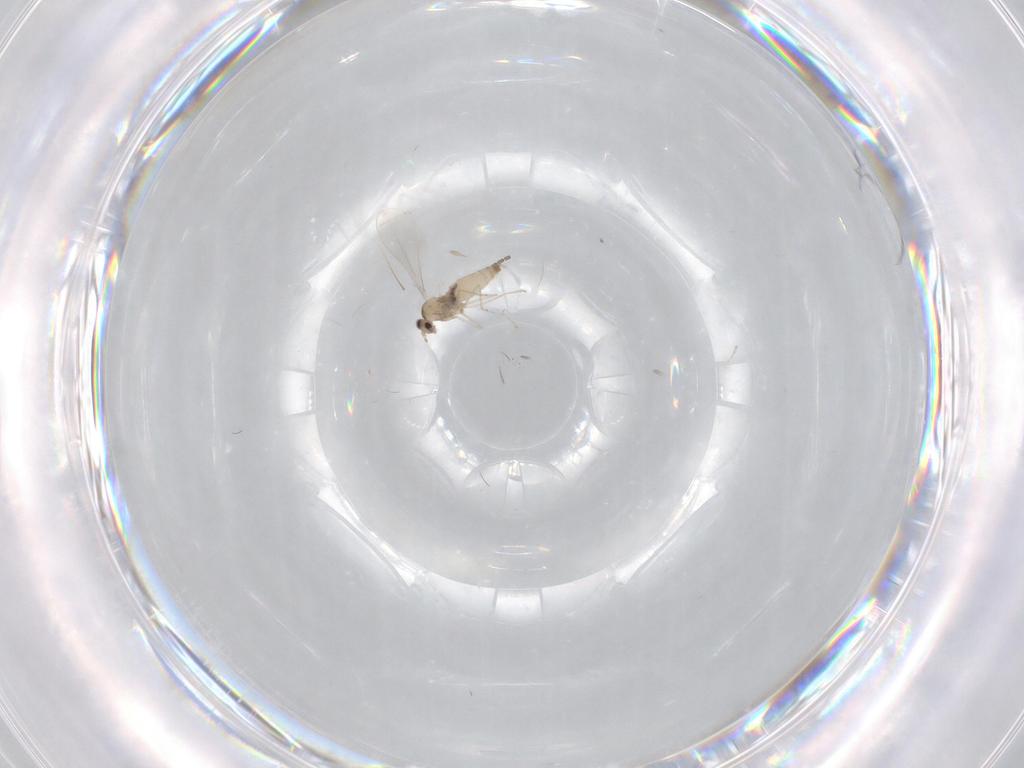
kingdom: Animalia
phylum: Arthropoda
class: Insecta
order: Diptera
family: Cecidomyiidae
